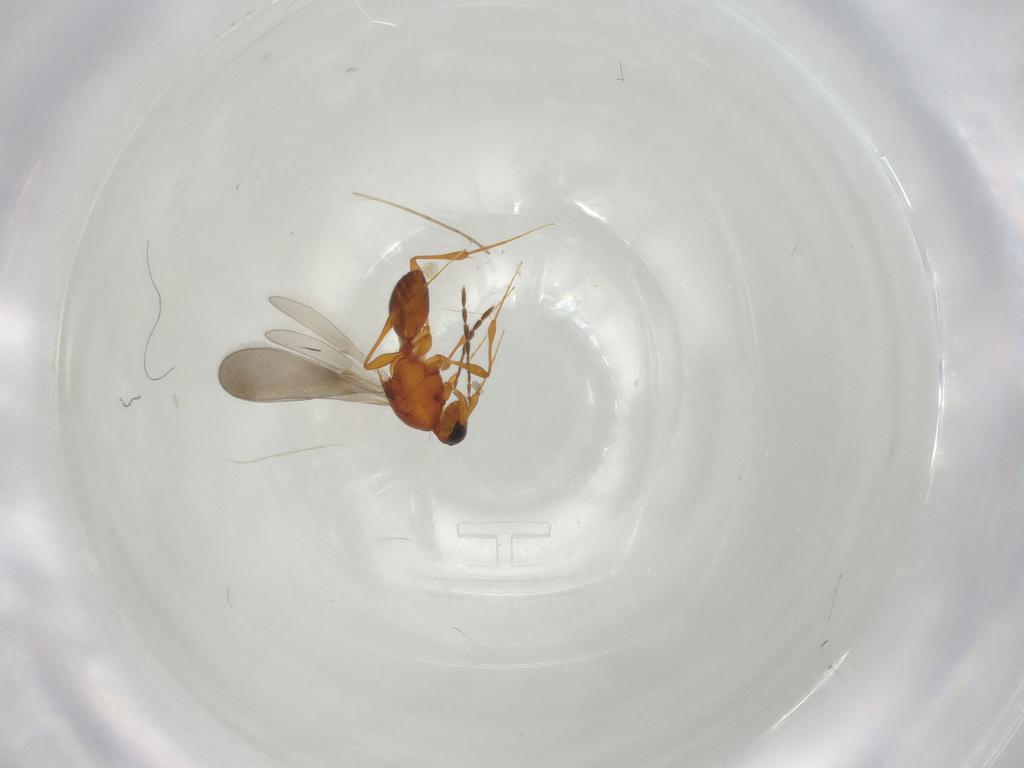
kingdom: Animalia
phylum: Arthropoda
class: Insecta
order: Hymenoptera
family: Platygastridae
